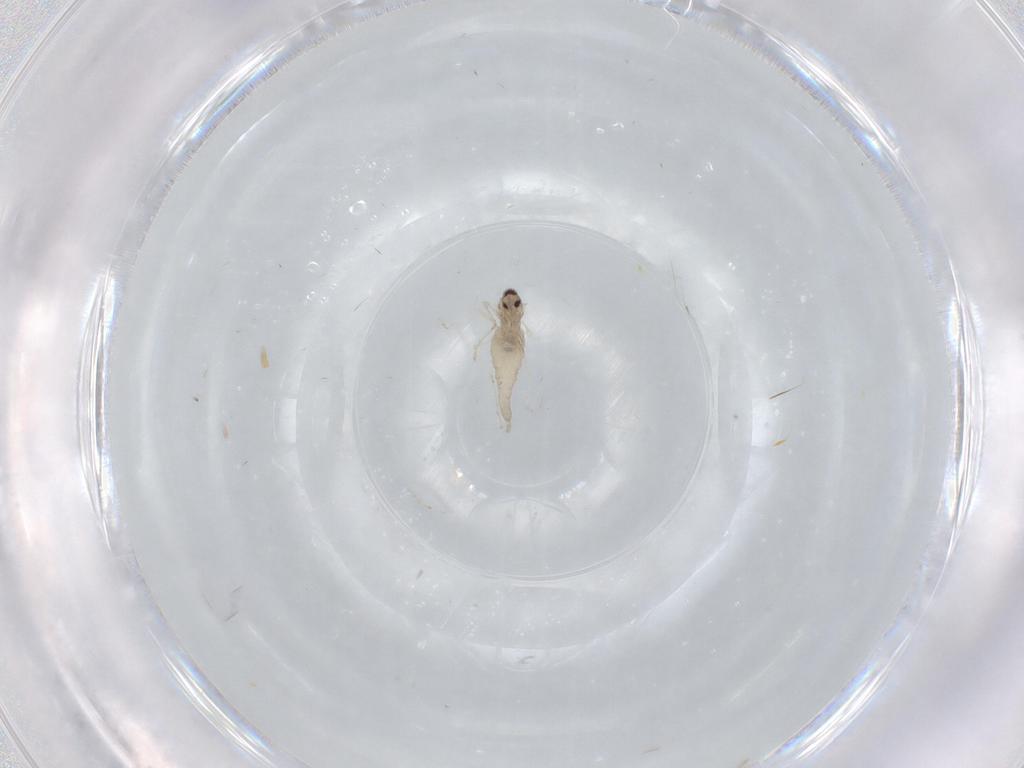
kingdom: Animalia
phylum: Arthropoda
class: Insecta
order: Diptera
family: Cecidomyiidae
